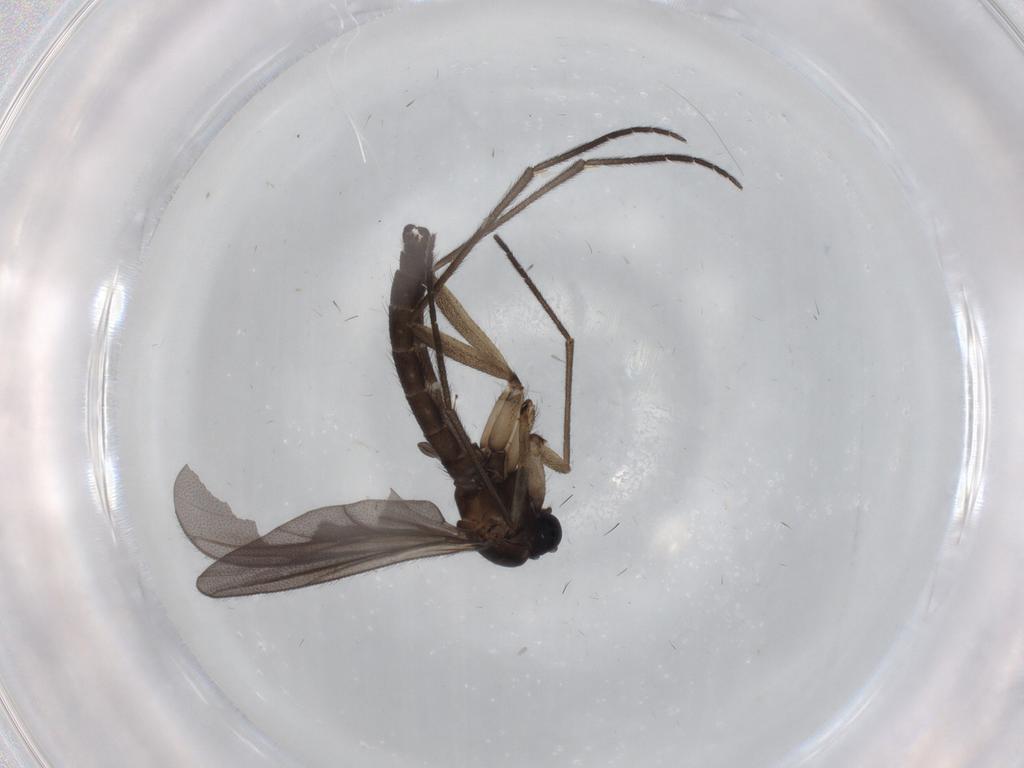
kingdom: Animalia
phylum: Arthropoda
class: Insecta
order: Diptera
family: Sciaridae
